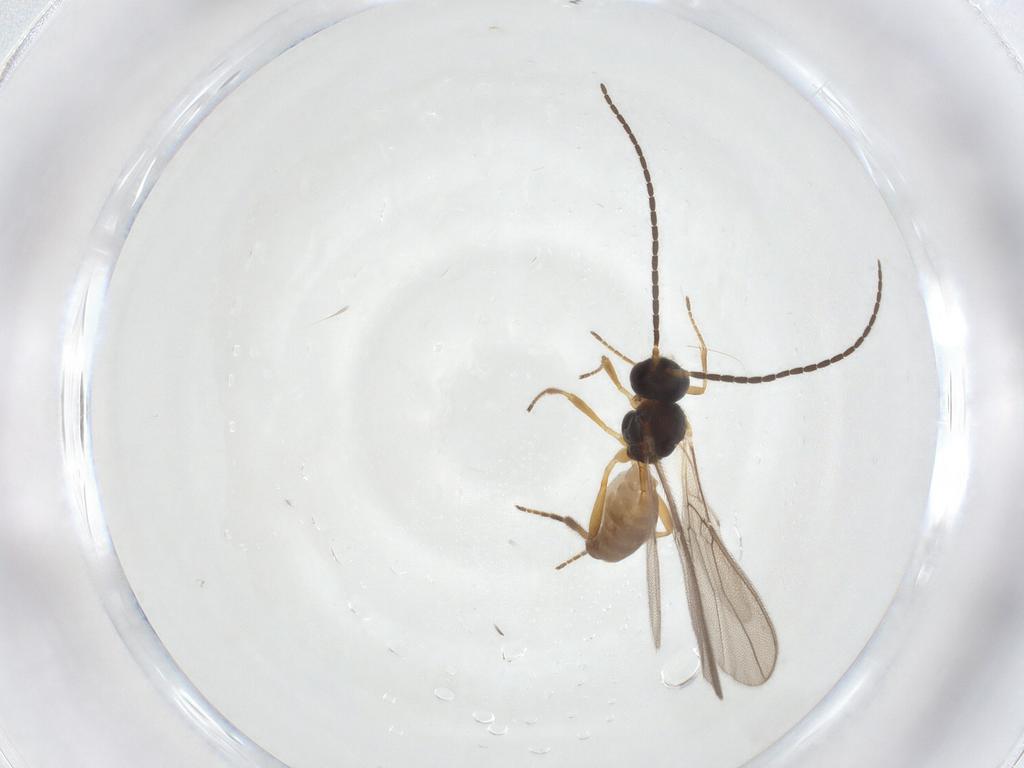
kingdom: Animalia
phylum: Arthropoda
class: Insecta
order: Hymenoptera
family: Braconidae
